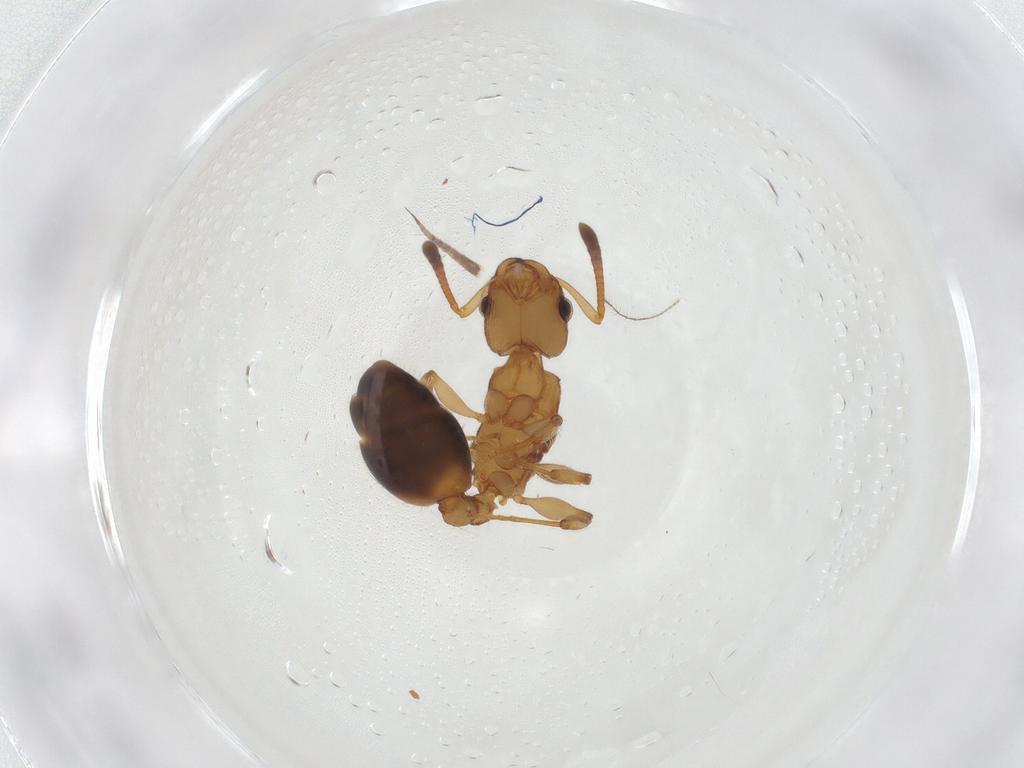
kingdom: Animalia
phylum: Arthropoda
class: Insecta
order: Hymenoptera
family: Formicidae
